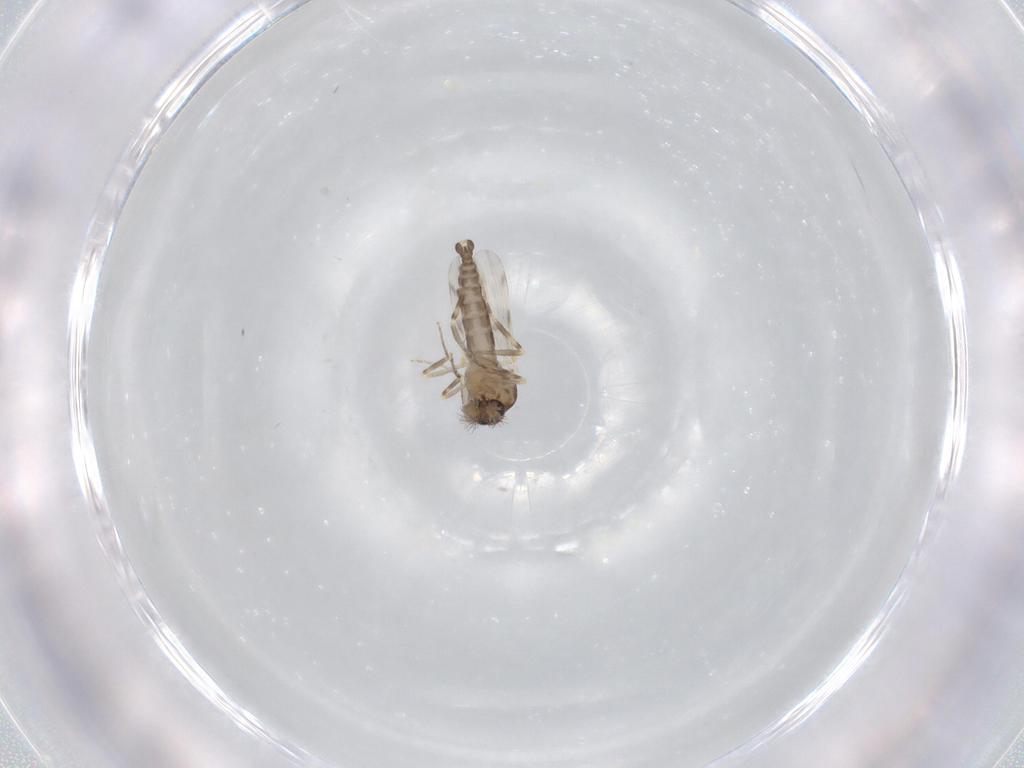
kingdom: Animalia
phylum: Arthropoda
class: Insecta
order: Diptera
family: Ceratopogonidae
